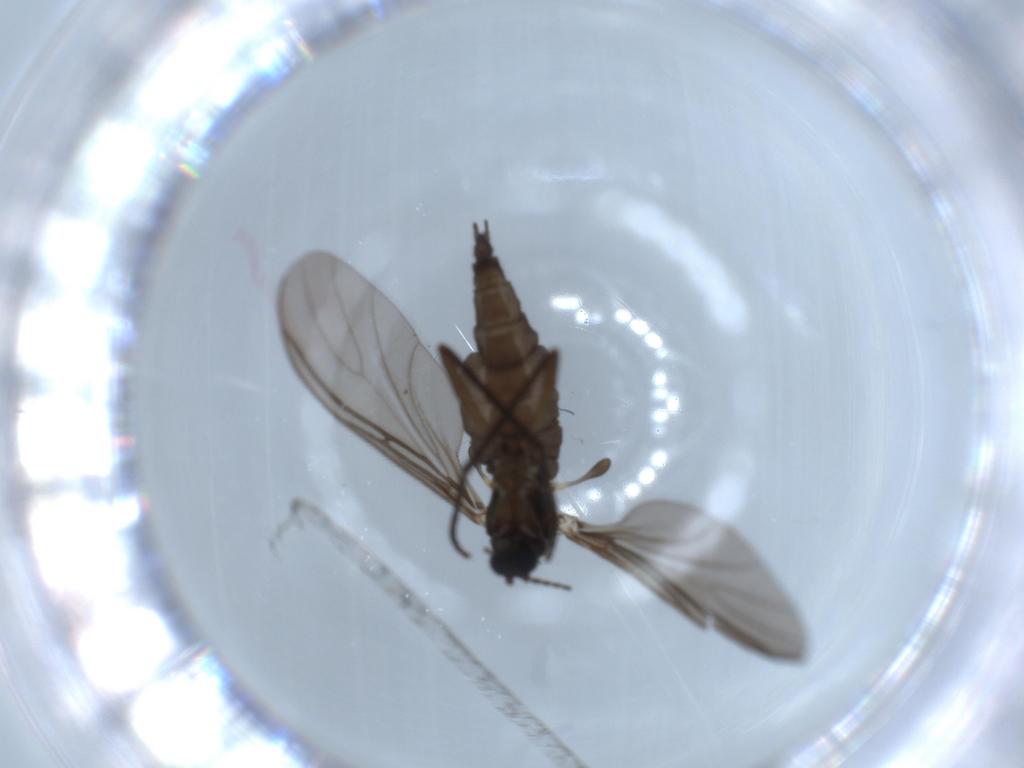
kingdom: Animalia
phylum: Arthropoda
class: Insecta
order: Diptera
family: Sciaridae
